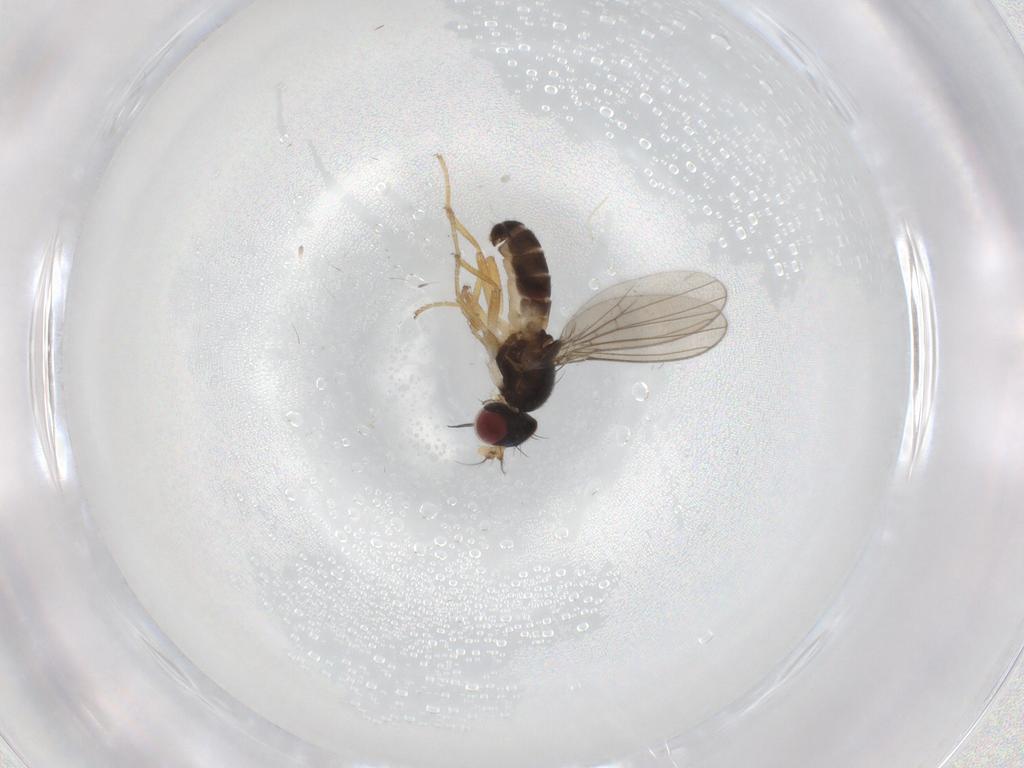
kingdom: Animalia
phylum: Arthropoda
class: Insecta
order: Diptera
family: Anthomyzidae
